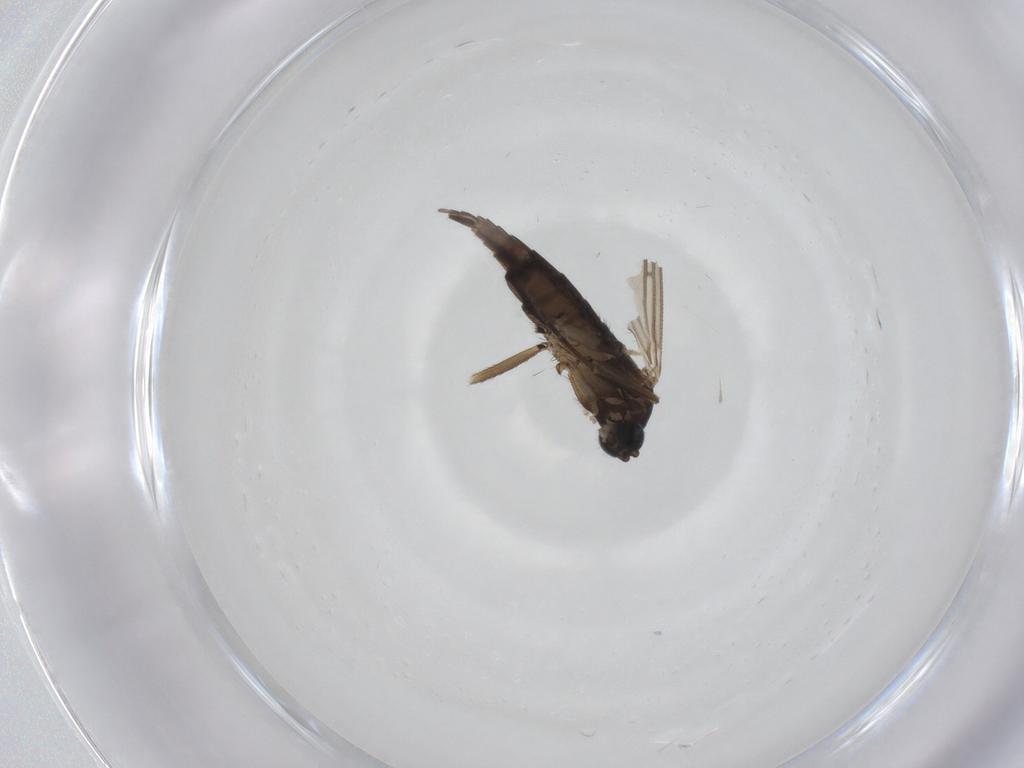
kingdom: Animalia
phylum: Arthropoda
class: Insecta
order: Diptera
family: Sciaridae
